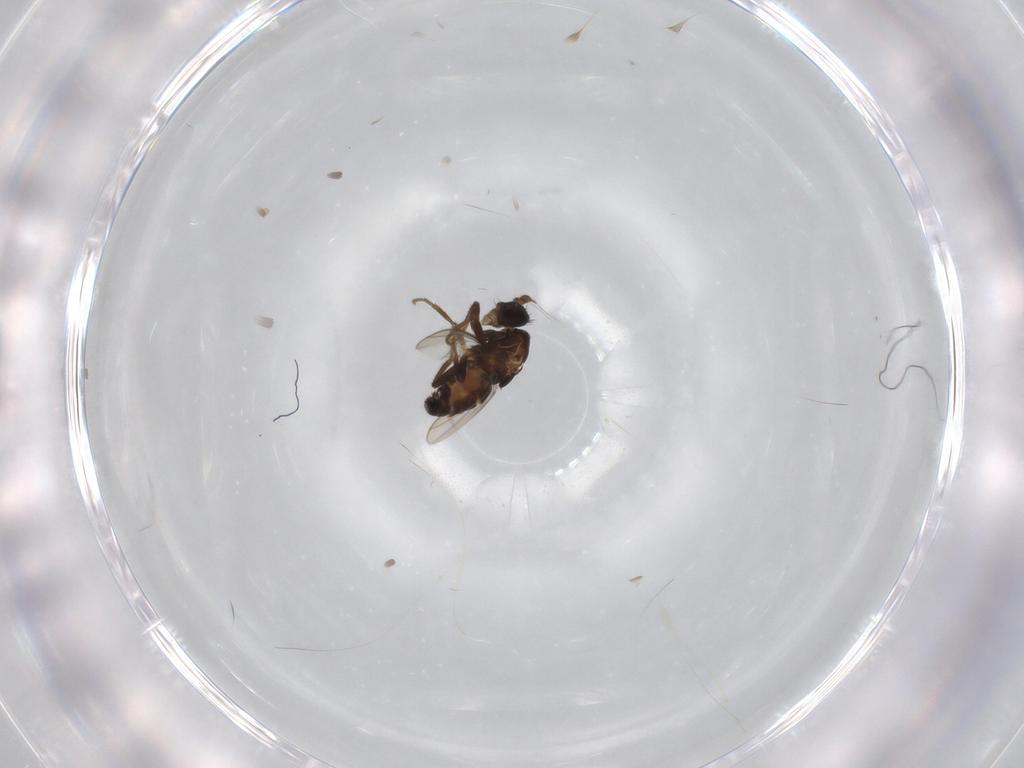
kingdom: Animalia
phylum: Arthropoda
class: Insecta
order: Diptera
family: Sphaeroceridae
